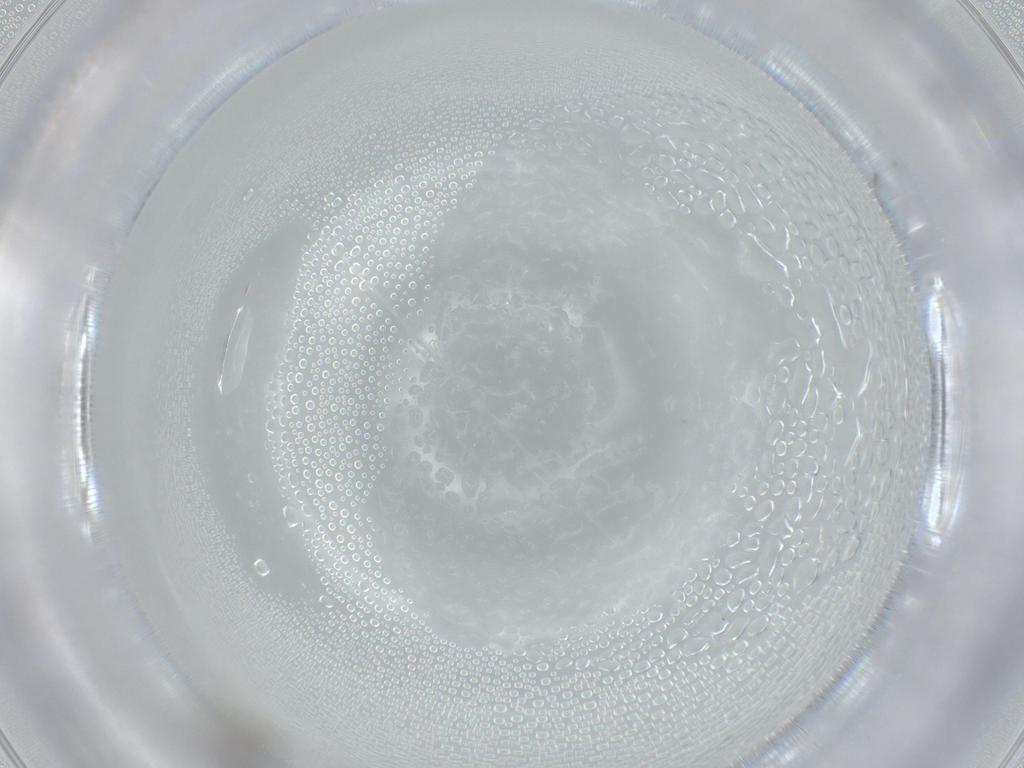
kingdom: Animalia
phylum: Arthropoda
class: Insecta
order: Diptera
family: Cecidomyiidae
